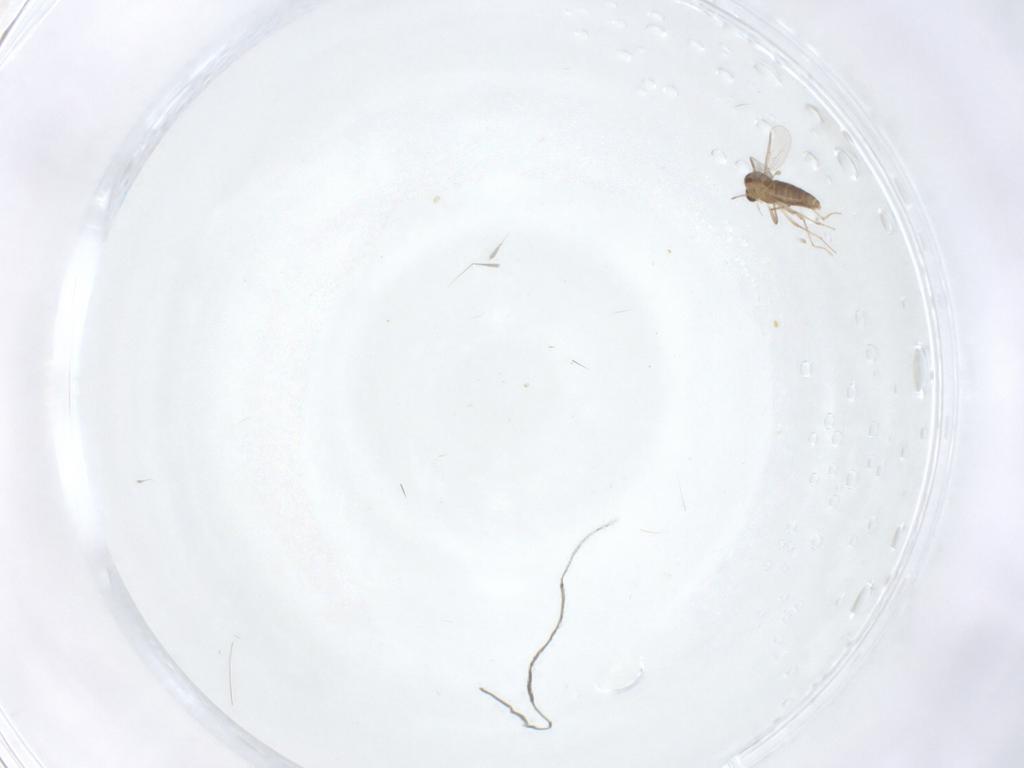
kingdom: Animalia
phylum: Arthropoda
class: Insecta
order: Diptera
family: Chironomidae
